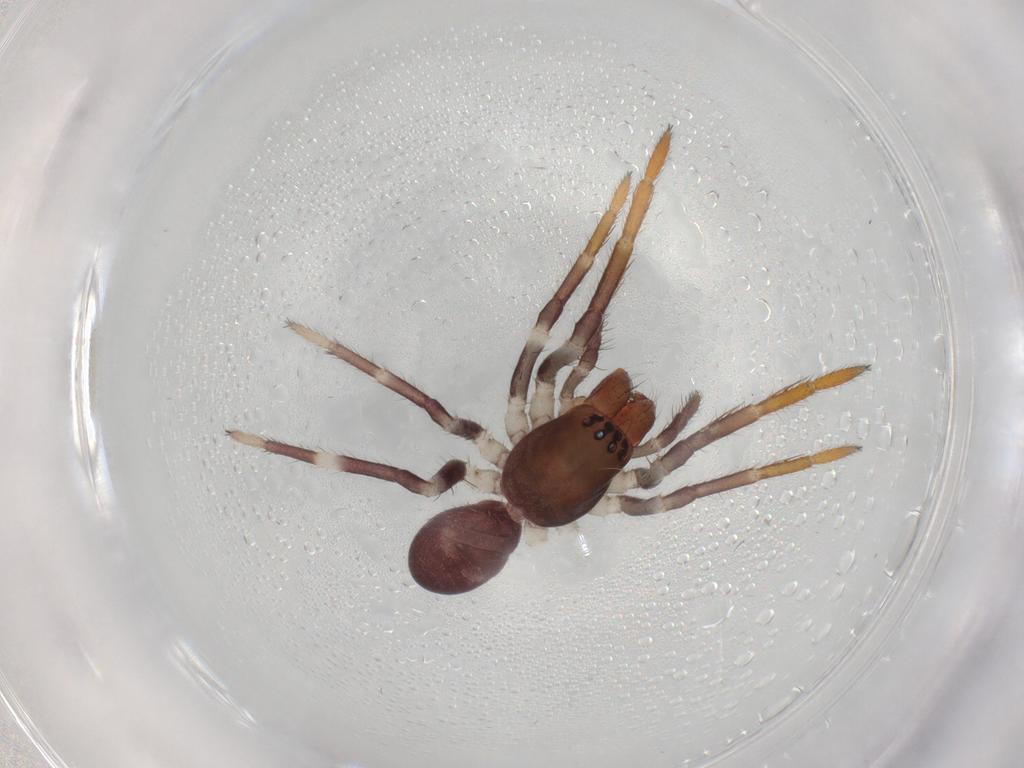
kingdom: Animalia
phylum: Arthropoda
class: Arachnida
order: Araneae
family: Corinnidae
